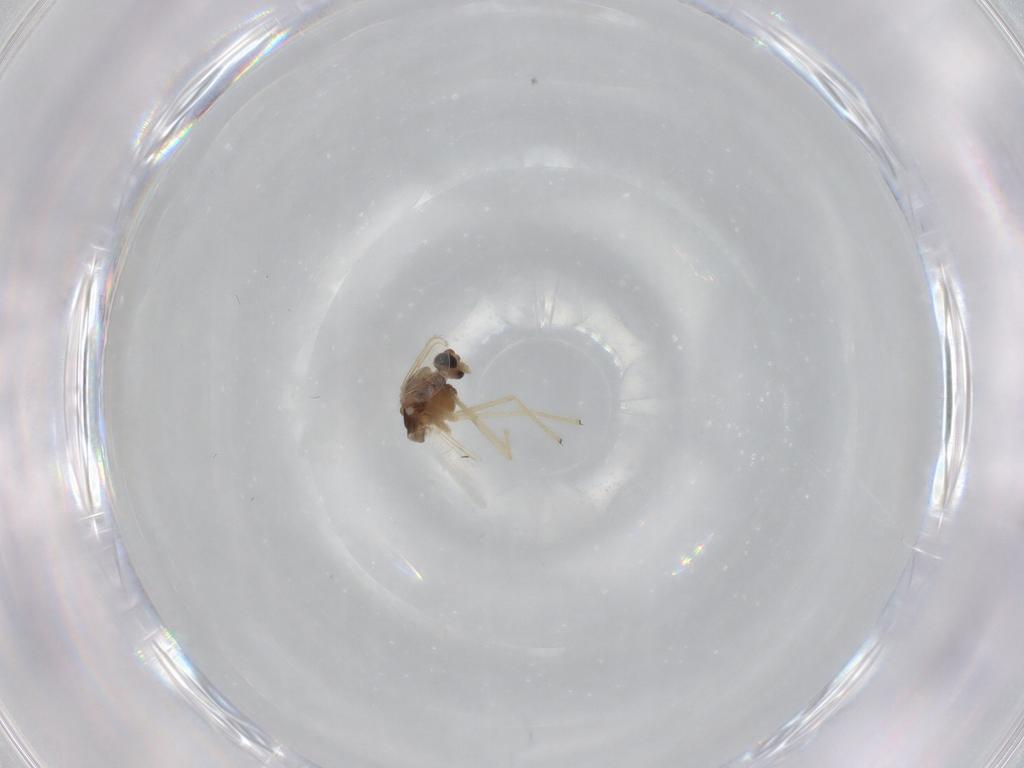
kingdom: Animalia
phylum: Arthropoda
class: Insecta
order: Diptera
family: Chironomidae
